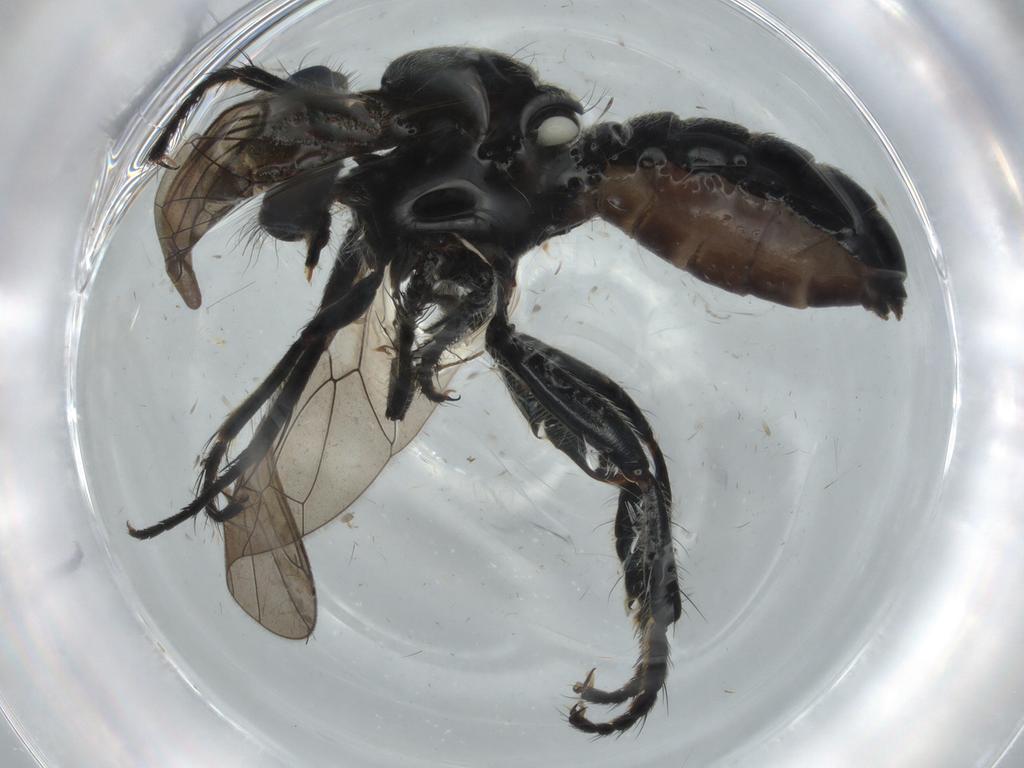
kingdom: Animalia
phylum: Arthropoda
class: Insecta
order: Diptera
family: Asilidae
